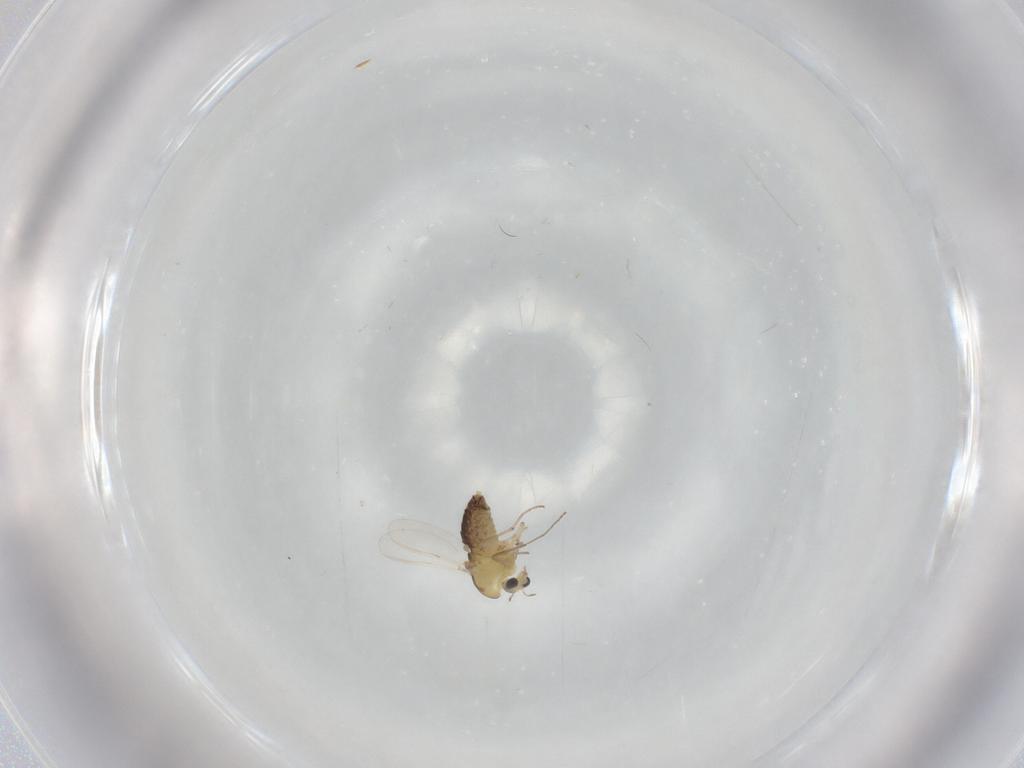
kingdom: Animalia
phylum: Arthropoda
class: Insecta
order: Diptera
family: Chironomidae
